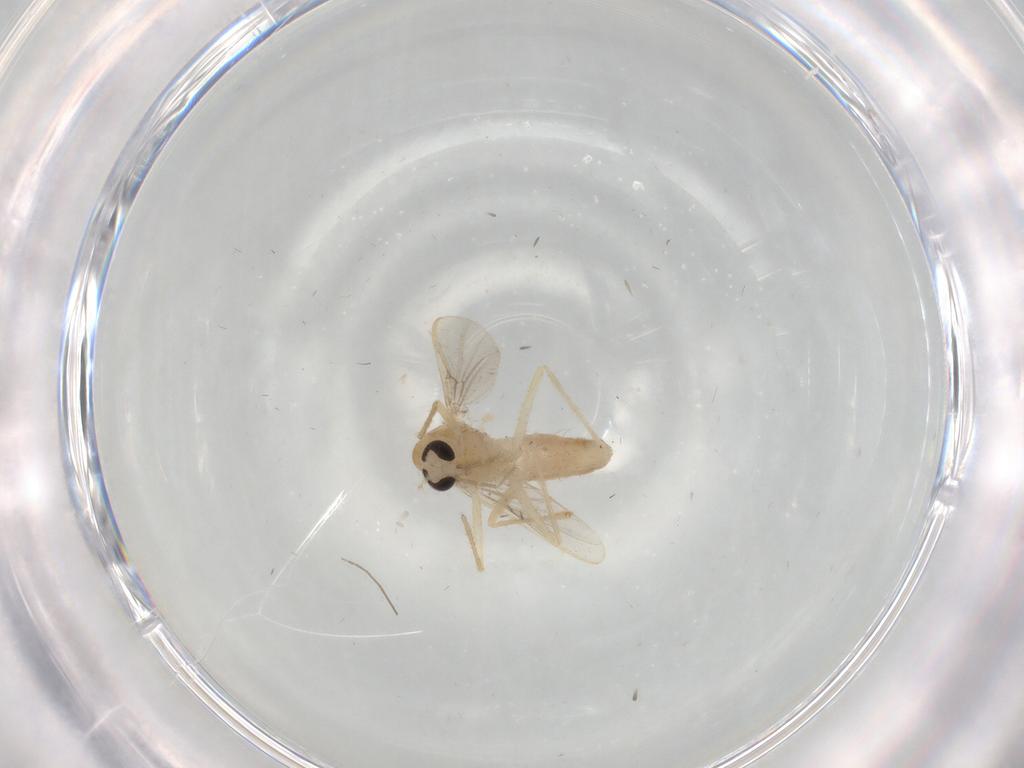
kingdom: Animalia
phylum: Arthropoda
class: Insecta
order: Diptera
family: Chironomidae
